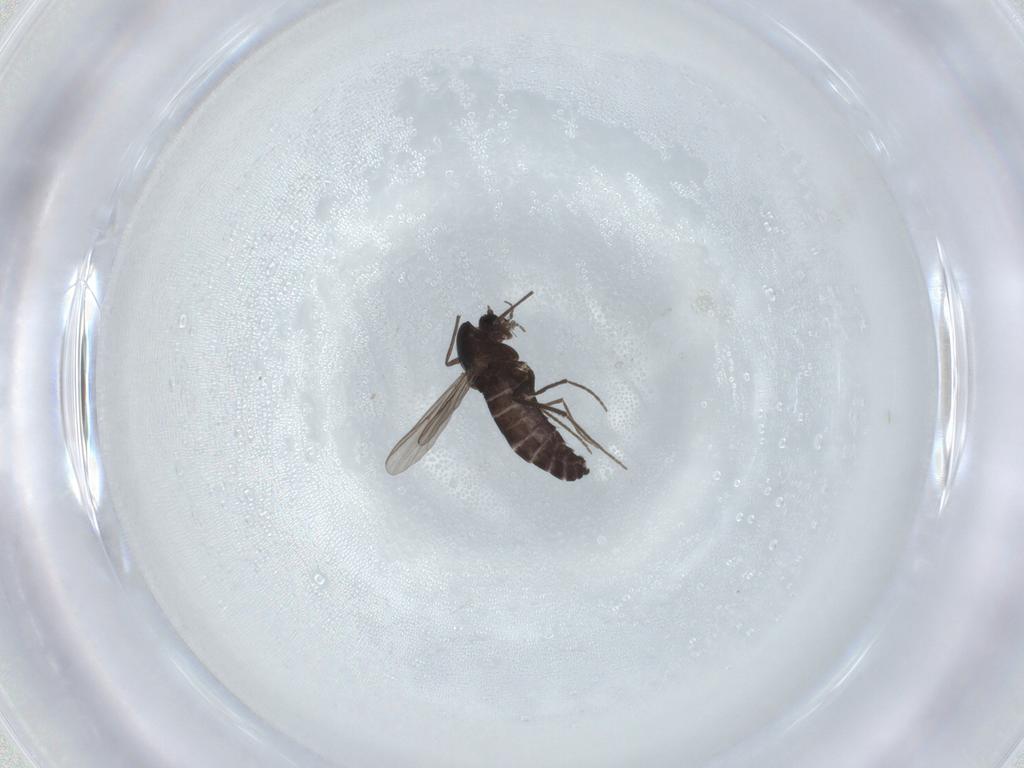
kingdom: Animalia
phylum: Arthropoda
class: Insecta
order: Diptera
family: Chironomidae
